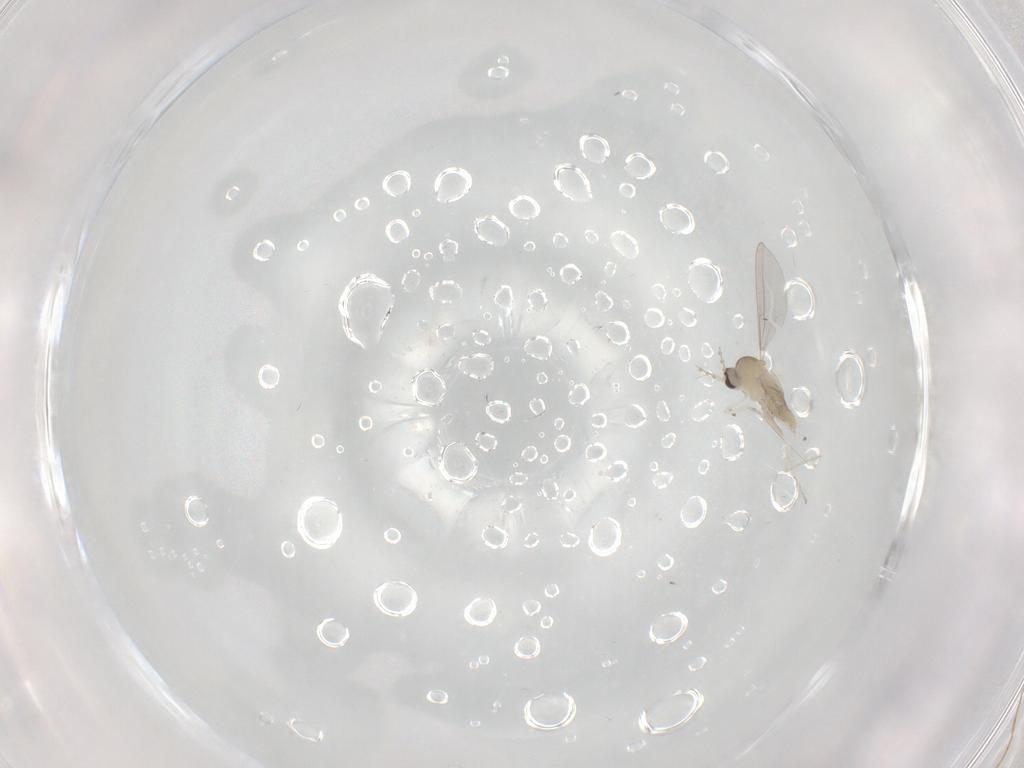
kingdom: Animalia
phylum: Arthropoda
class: Insecta
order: Diptera
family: Cecidomyiidae
